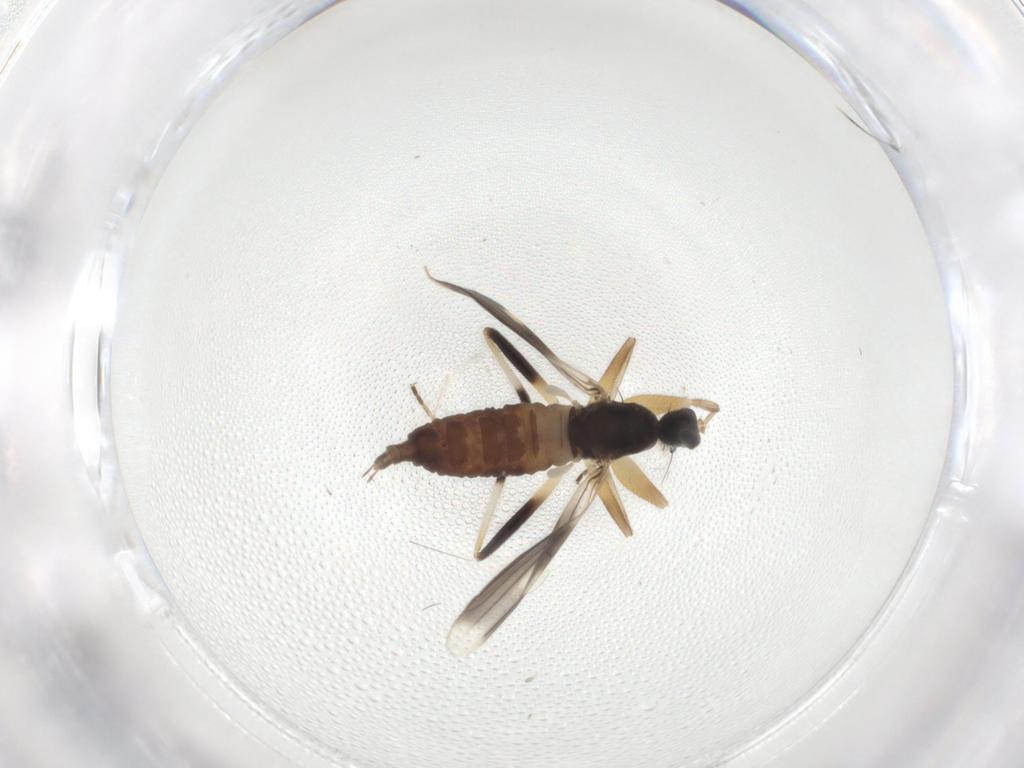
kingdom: Animalia
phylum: Arthropoda
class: Insecta
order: Diptera
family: Hybotidae
